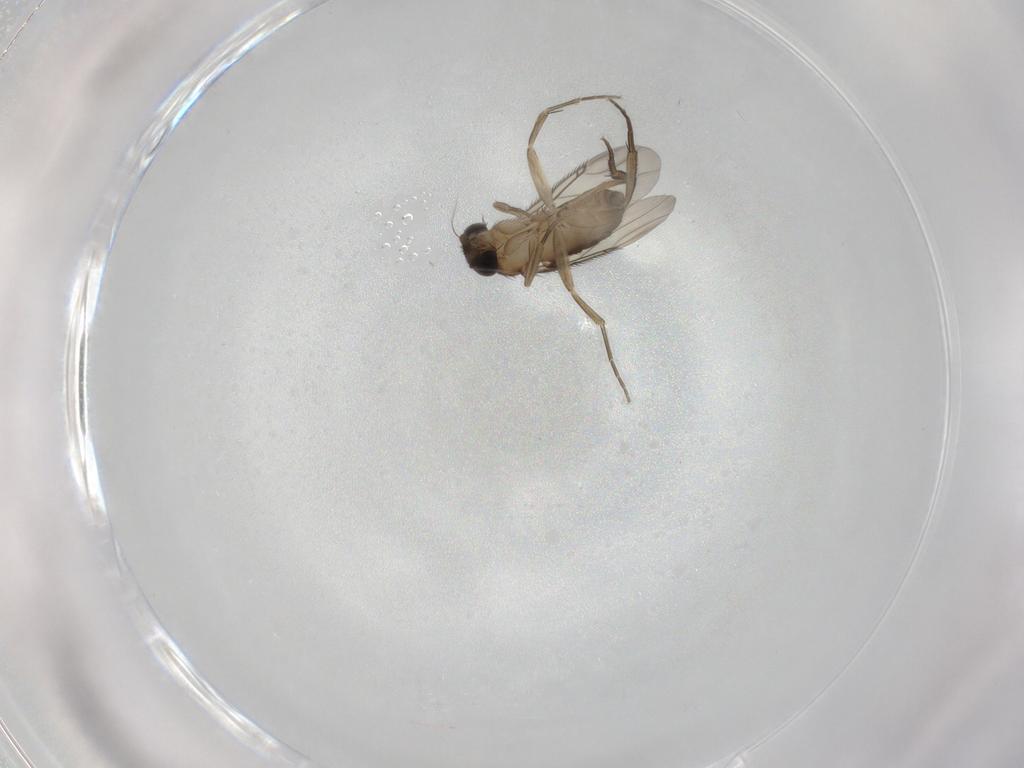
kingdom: Animalia
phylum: Arthropoda
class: Insecta
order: Diptera
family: Phoridae
